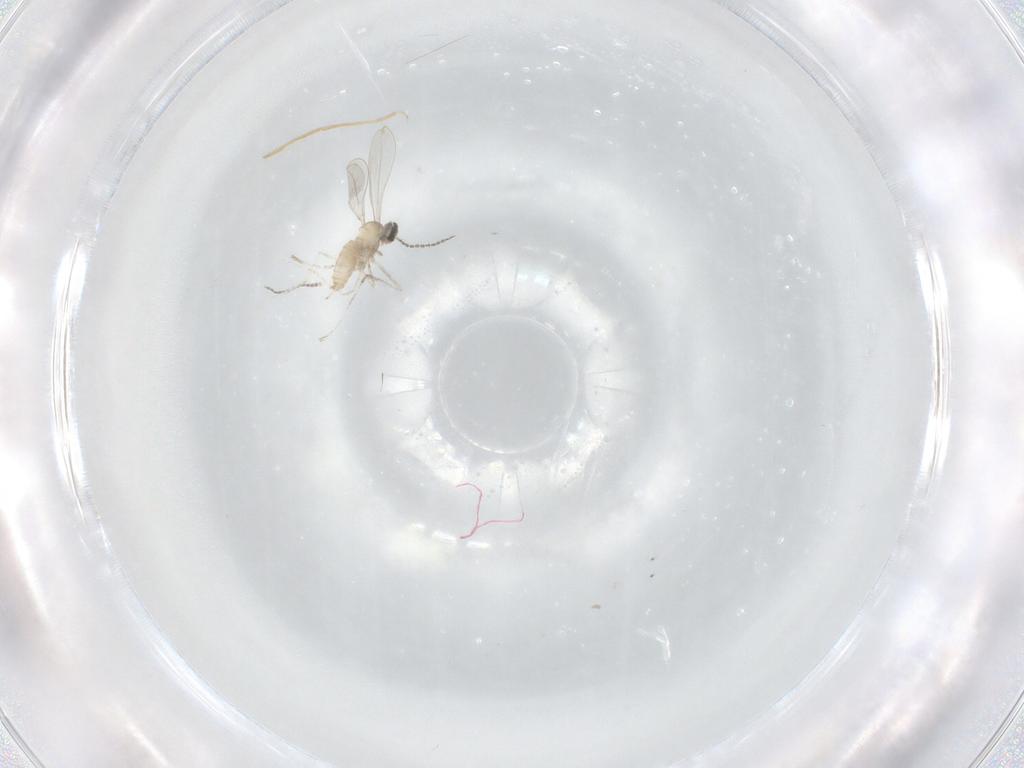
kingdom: Animalia
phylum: Arthropoda
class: Insecta
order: Diptera
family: Cecidomyiidae
